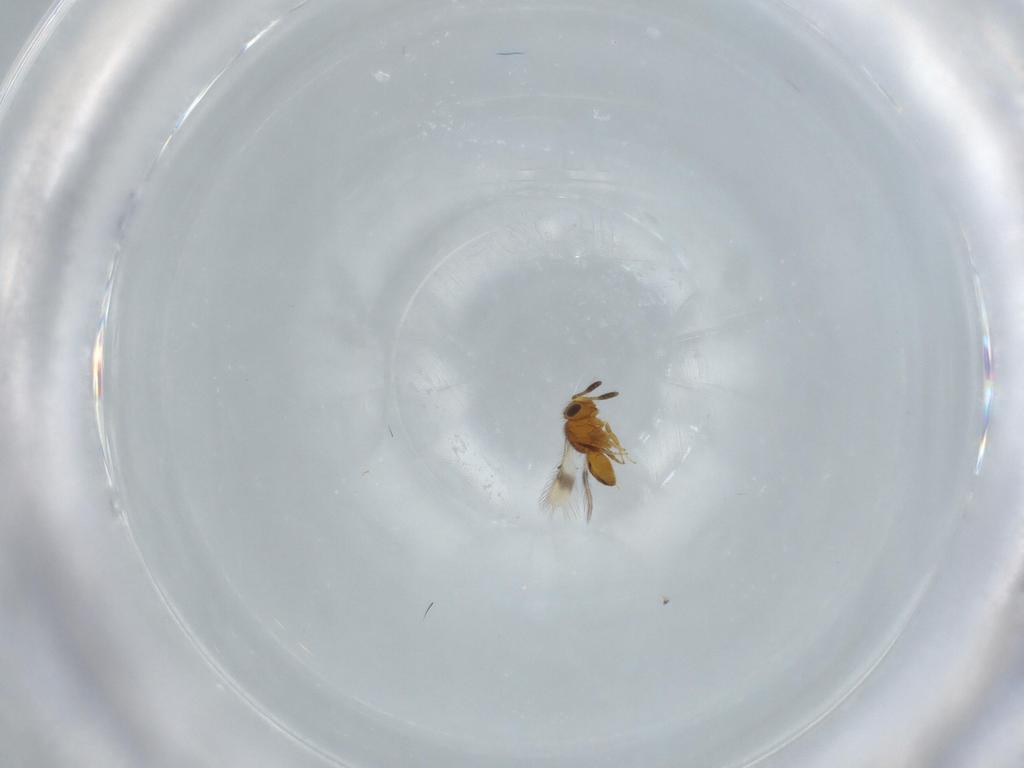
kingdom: Animalia
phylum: Arthropoda
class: Insecta
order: Hymenoptera
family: Scelionidae
